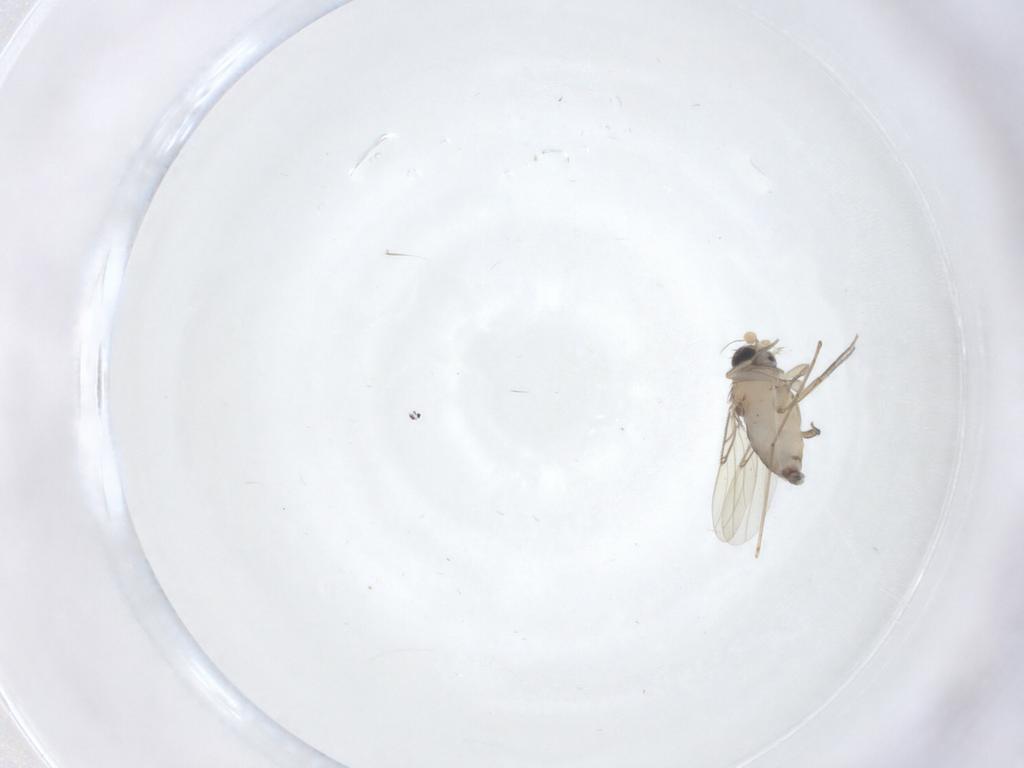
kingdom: Animalia
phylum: Arthropoda
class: Insecta
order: Diptera
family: Phoridae
